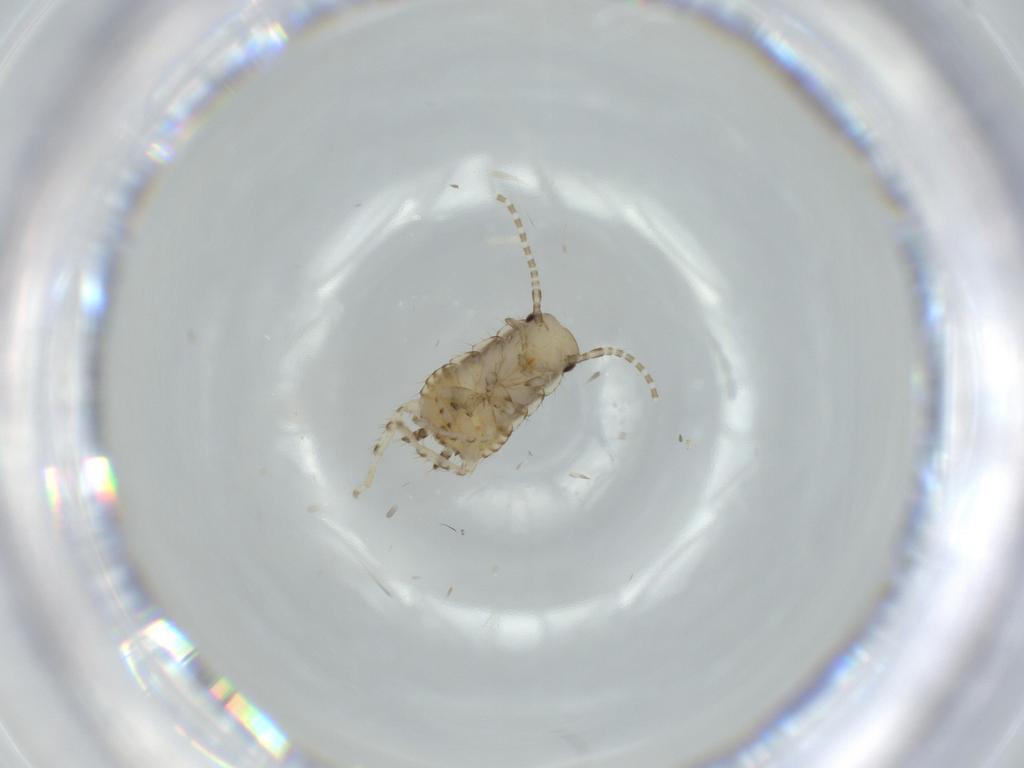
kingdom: Animalia
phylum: Arthropoda
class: Insecta
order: Blattodea
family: Ectobiidae
